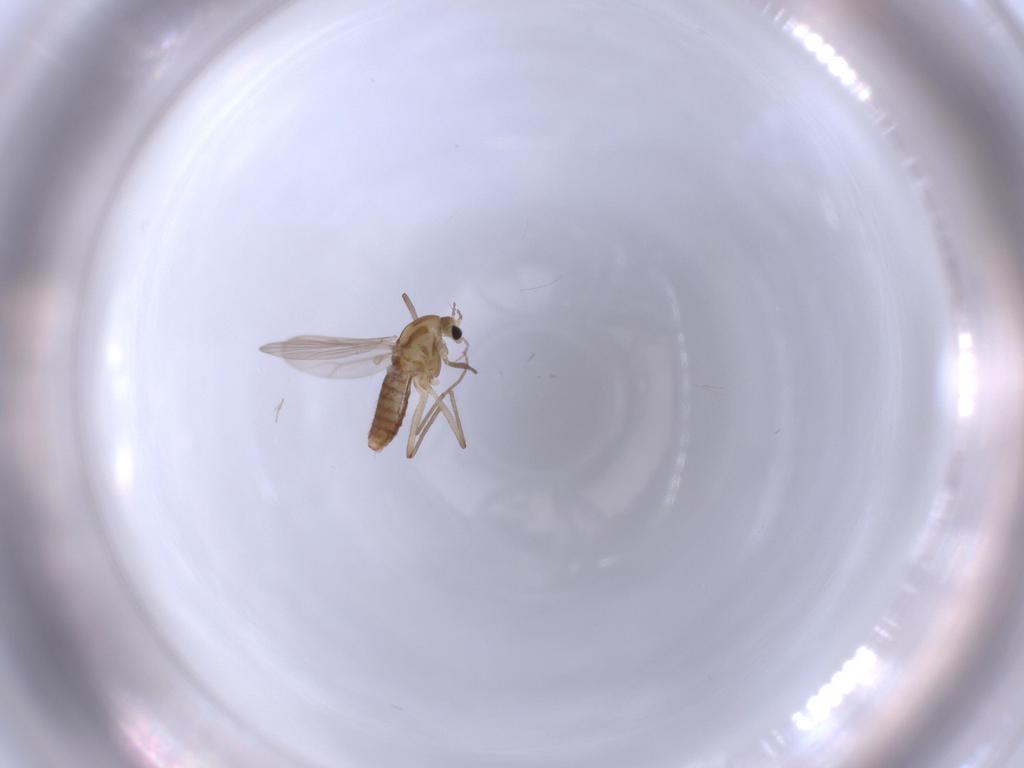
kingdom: Animalia
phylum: Arthropoda
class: Insecta
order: Diptera
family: Chironomidae
